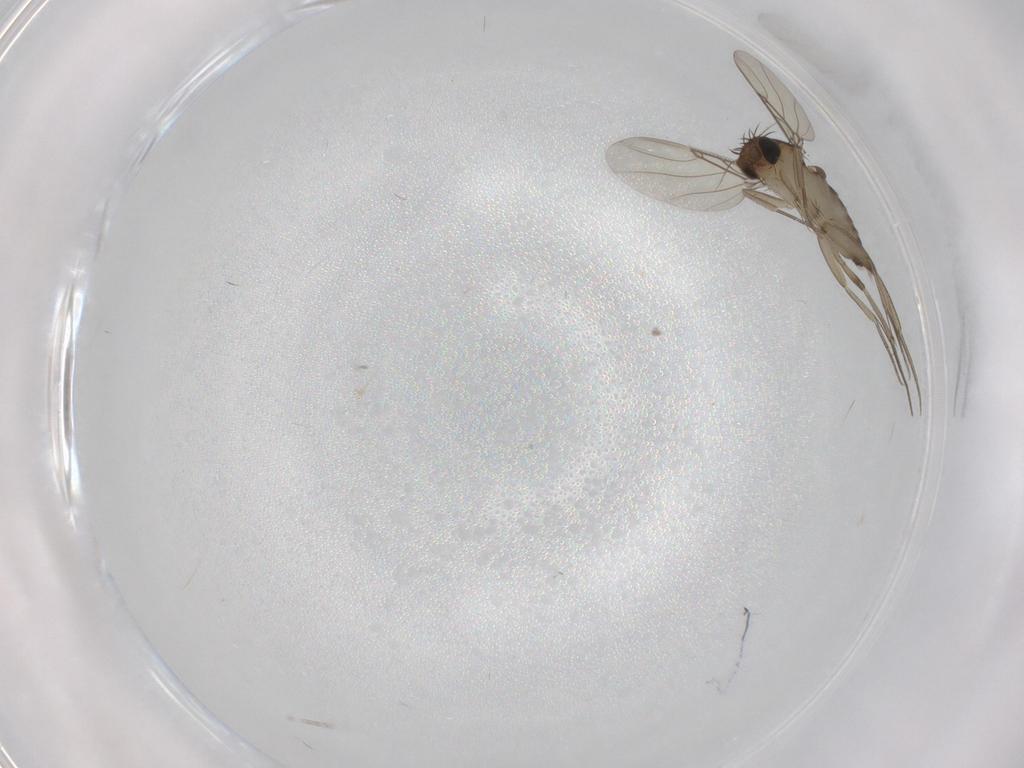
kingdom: Animalia
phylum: Arthropoda
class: Insecta
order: Diptera
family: Phoridae
